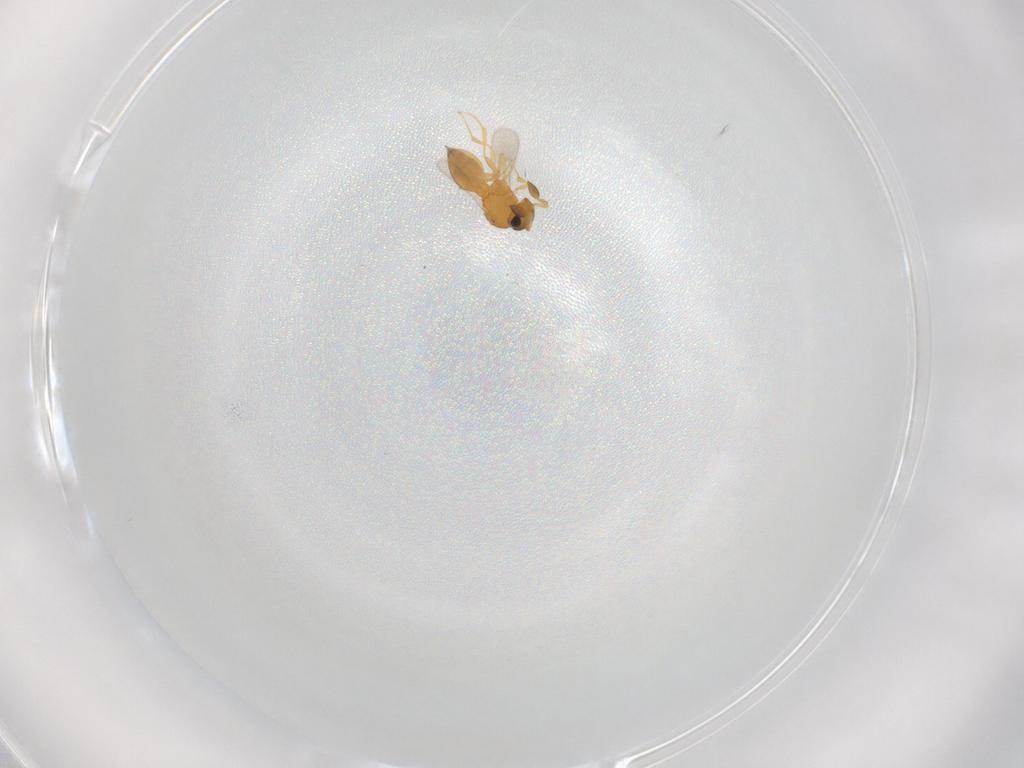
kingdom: Animalia
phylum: Arthropoda
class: Insecta
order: Hymenoptera
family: Scelionidae
